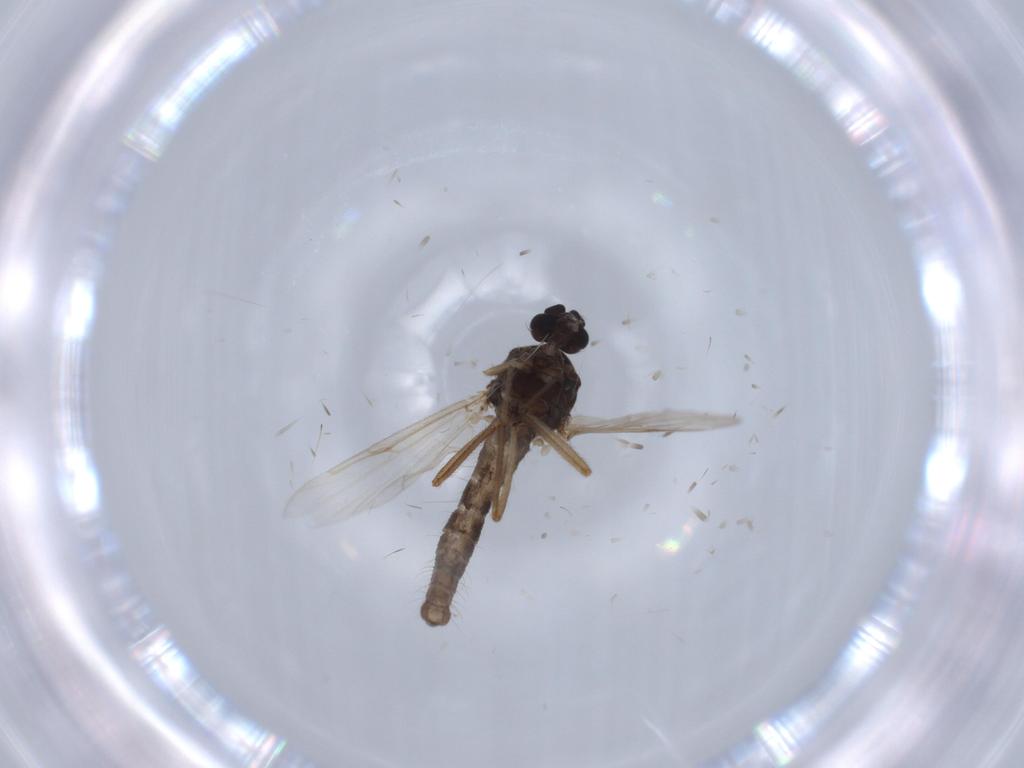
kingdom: Animalia
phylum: Arthropoda
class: Insecta
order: Diptera
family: Ceratopogonidae
